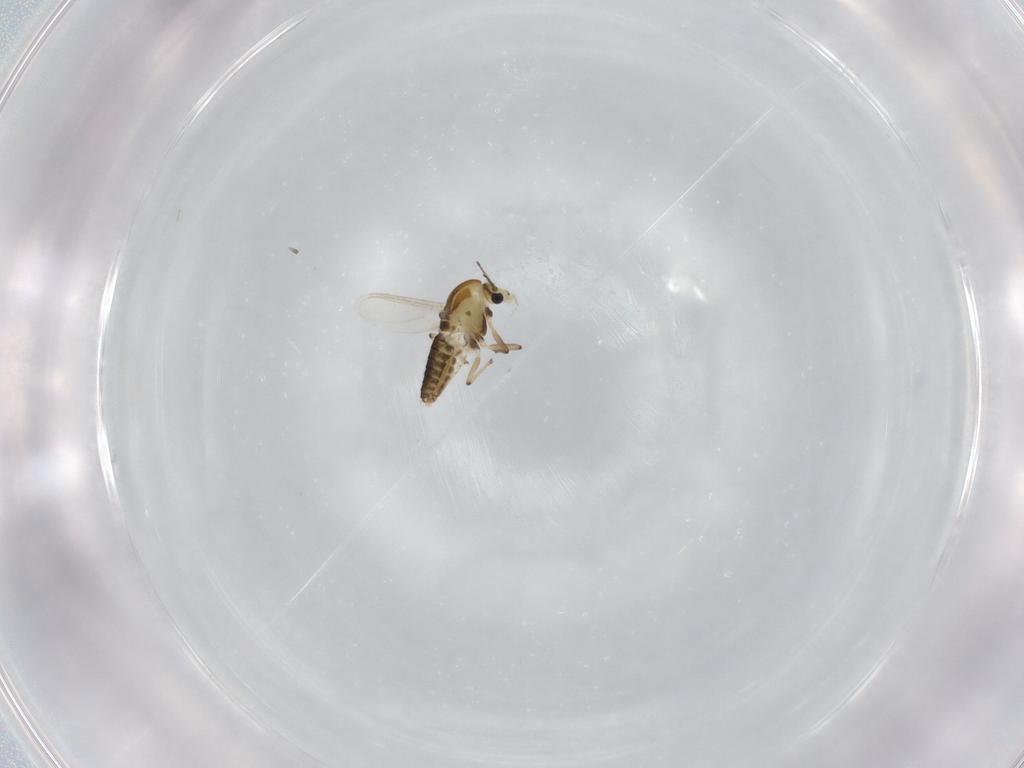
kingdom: Animalia
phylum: Arthropoda
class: Insecta
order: Diptera
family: Chironomidae
